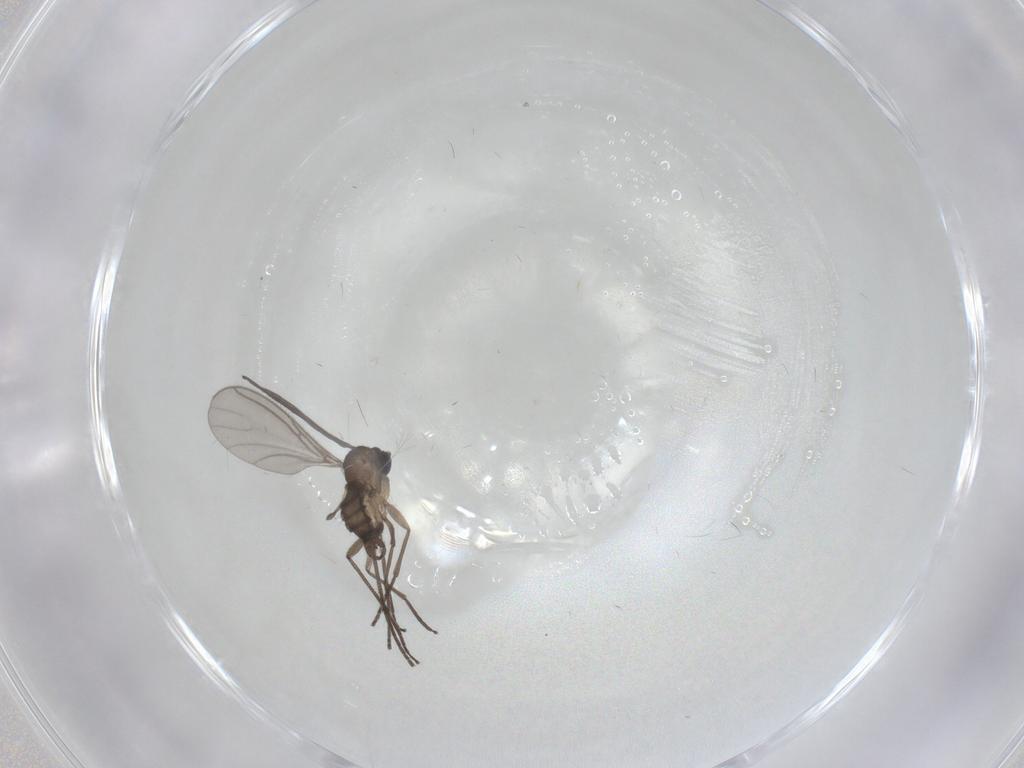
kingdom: Animalia
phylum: Arthropoda
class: Insecta
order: Diptera
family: Sciaridae
